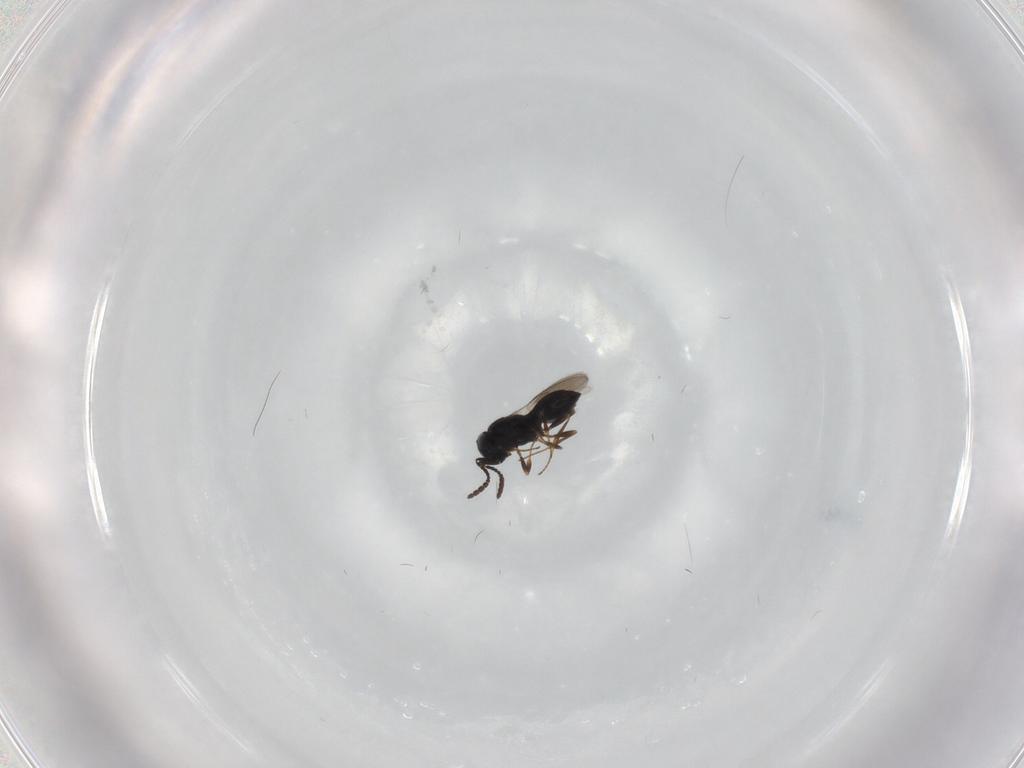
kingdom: Animalia
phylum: Arthropoda
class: Insecta
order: Hymenoptera
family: Scelionidae
